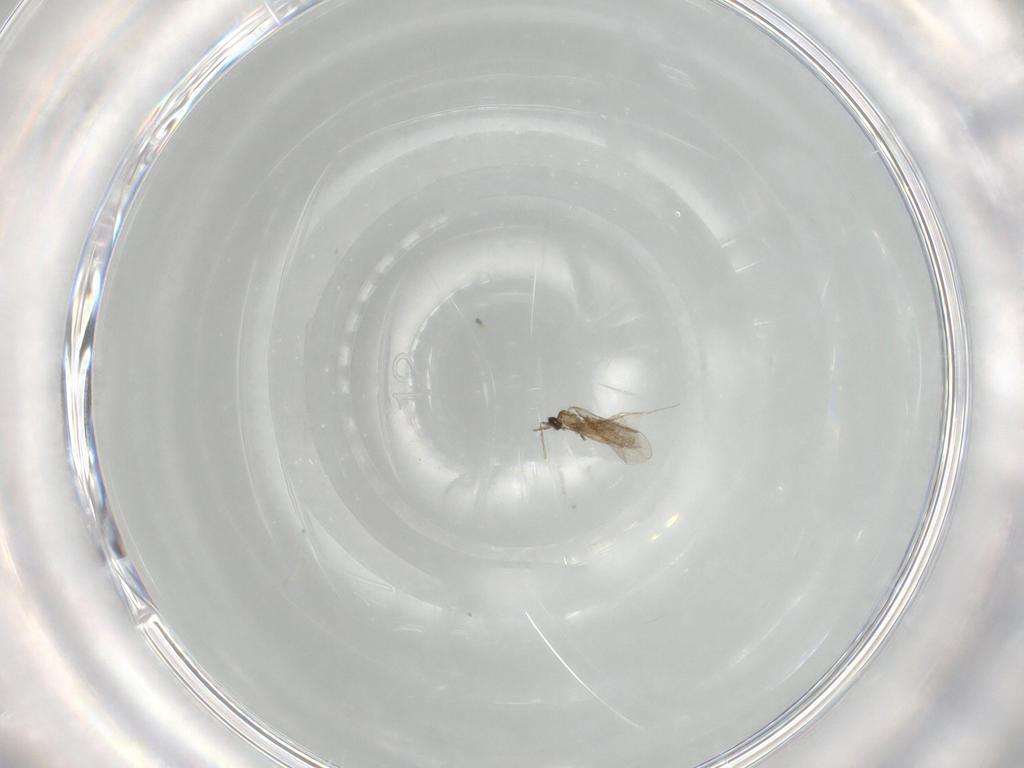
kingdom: Animalia
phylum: Arthropoda
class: Insecta
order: Diptera
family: Cecidomyiidae
